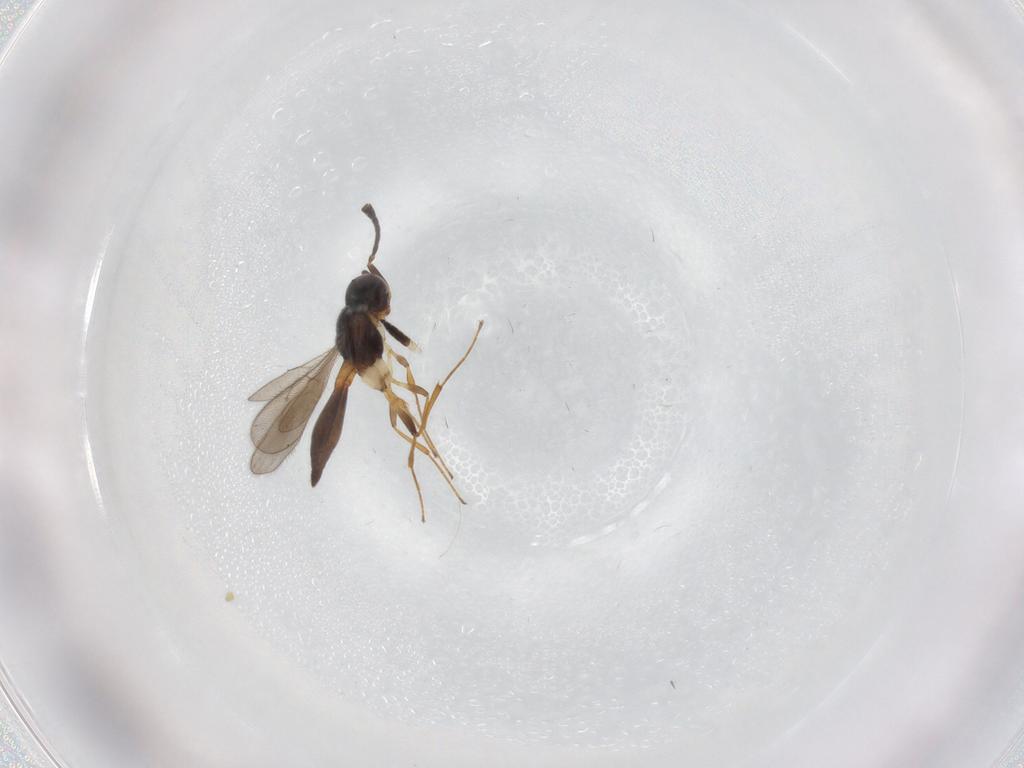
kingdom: Animalia
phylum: Arthropoda
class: Insecta
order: Hymenoptera
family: Scelionidae
